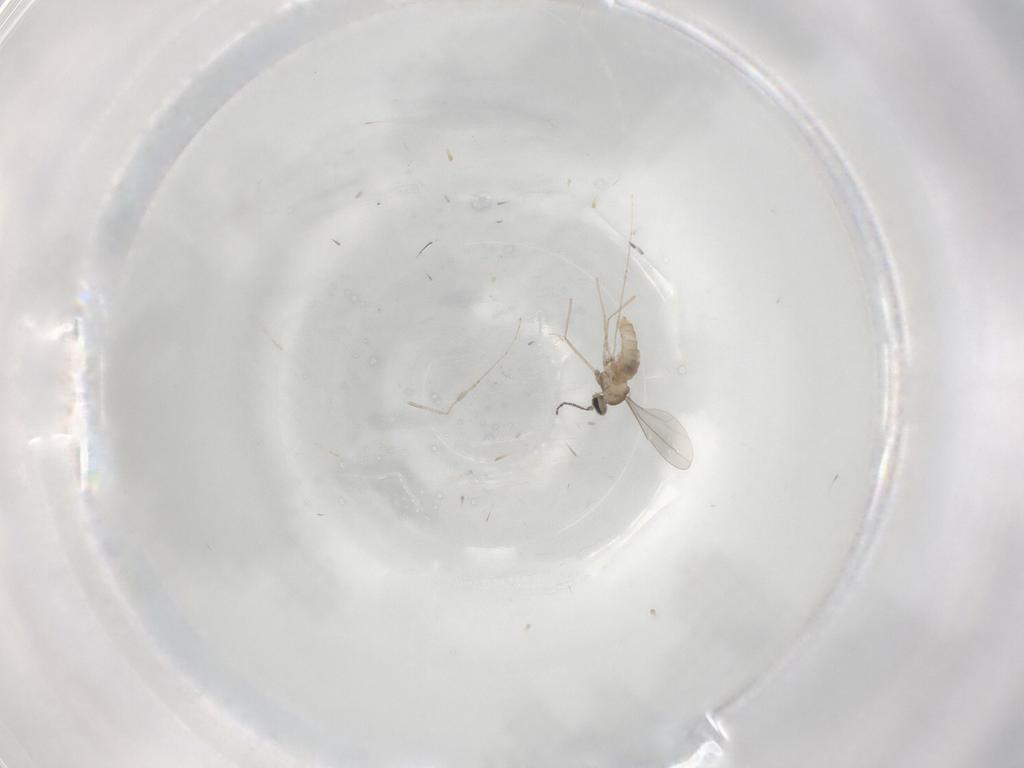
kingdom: Animalia
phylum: Arthropoda
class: Insecta
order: Diptera
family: Cecidomyiidae
